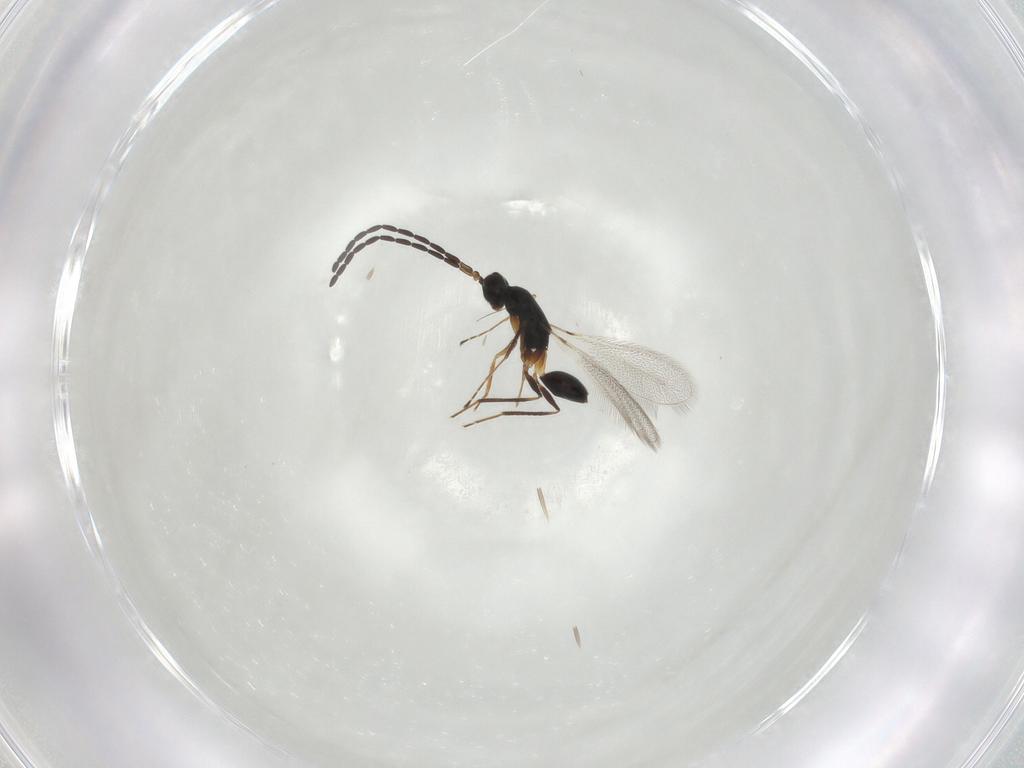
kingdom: Animalia
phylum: Arthropoda
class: Insecta
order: Hymenoptera
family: Mymaridae
